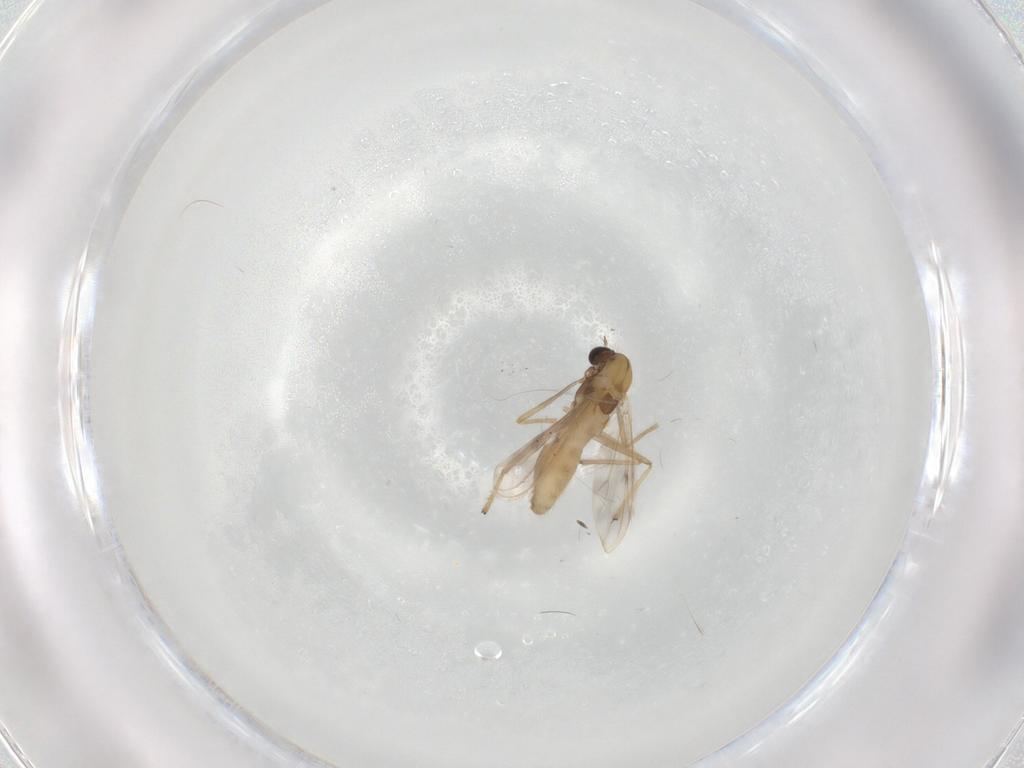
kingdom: Animalia
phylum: Arthropoda
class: Insecta
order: Diptera
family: Chironomidae
